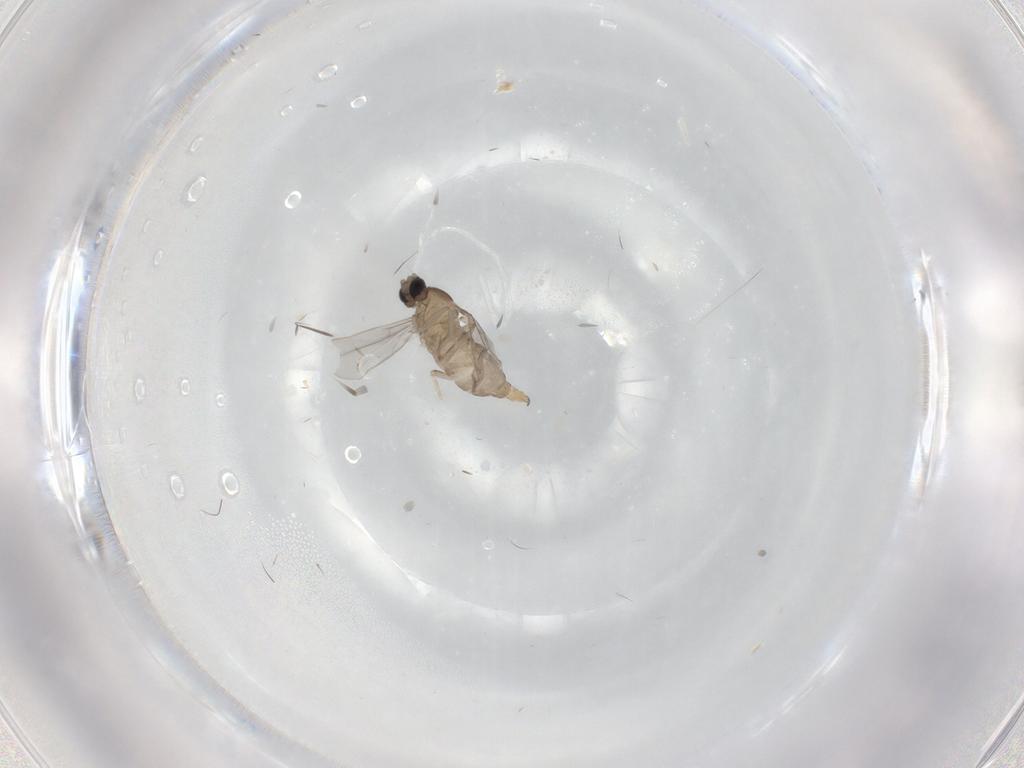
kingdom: Animalia
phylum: Arthropoda
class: Insecta
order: Diptera
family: Cecidomyiidae
